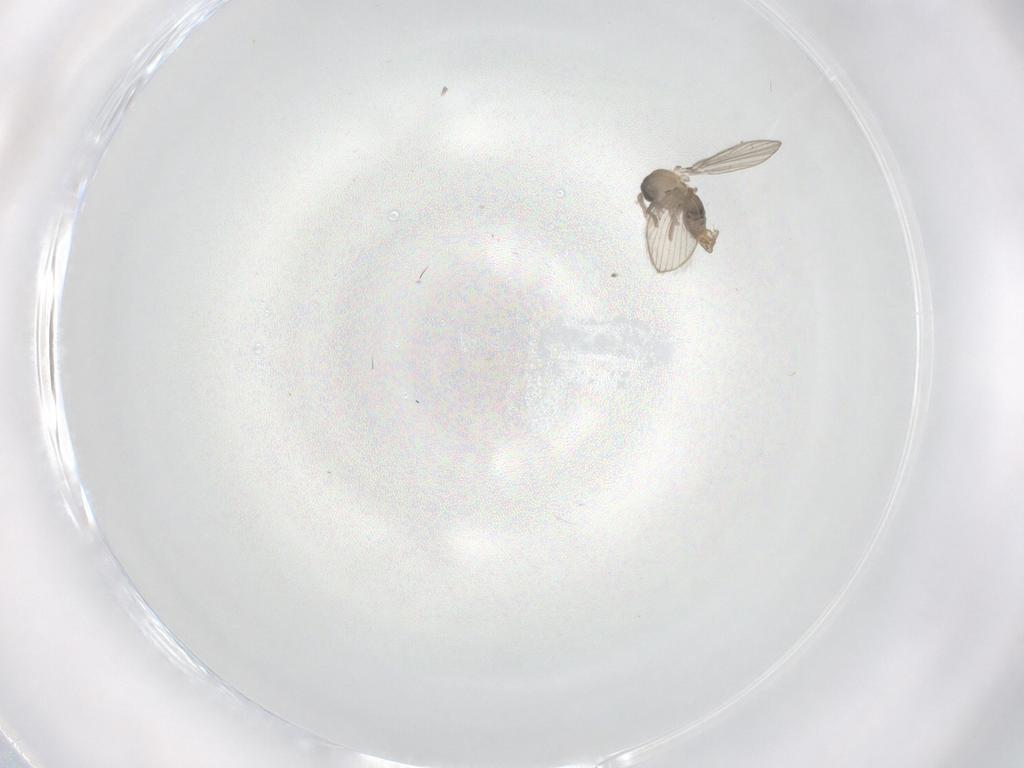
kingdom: Animalia
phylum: Arthropoda
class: Insecta
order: Diptera
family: Psychodidae
